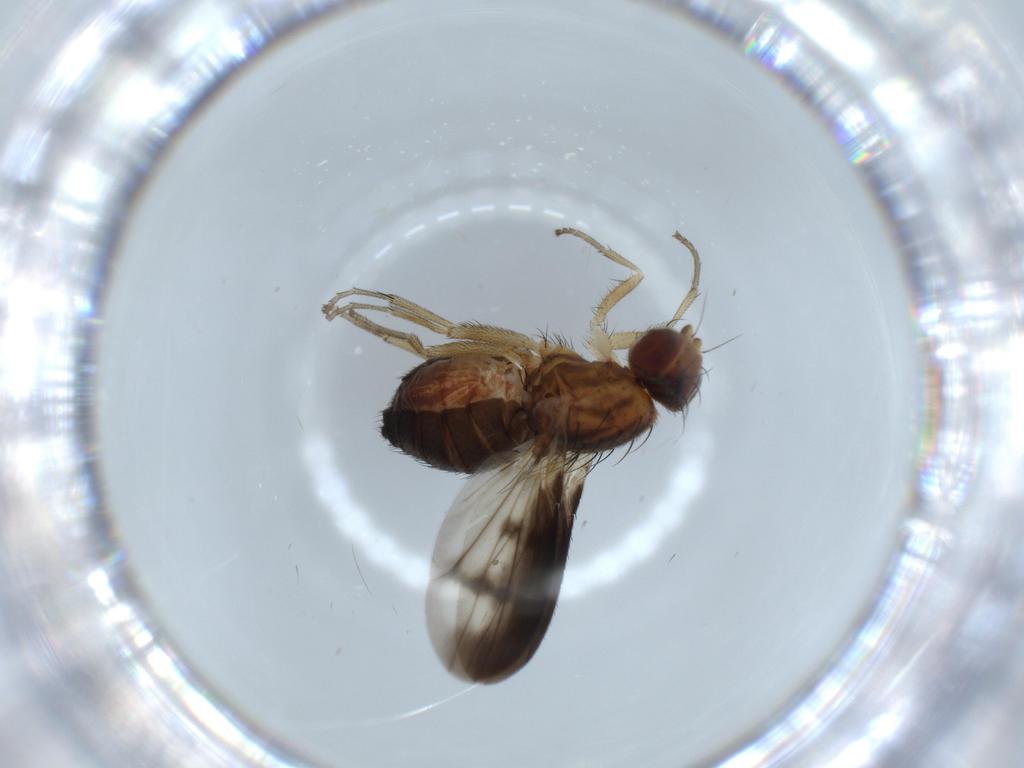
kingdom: Animalia
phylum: Arthropoda
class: Insecta
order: Diptera
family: Heleomyzidae
